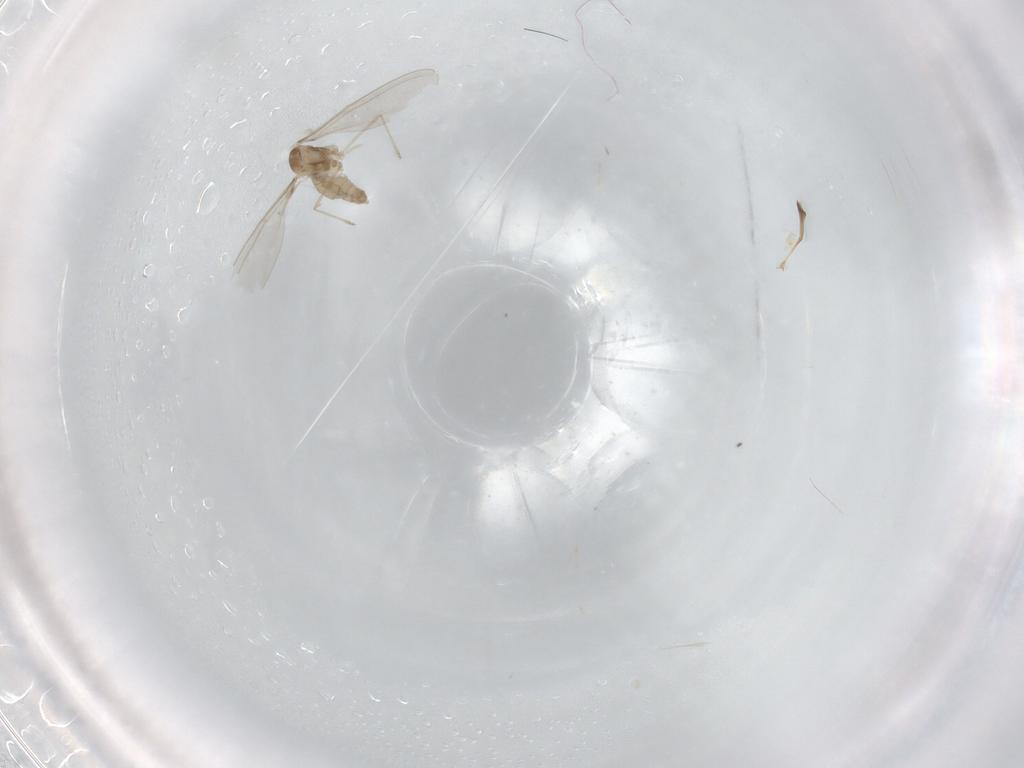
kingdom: Animalia
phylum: Arthropoda
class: Insecta
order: Diptera
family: Cecidomyiidae
